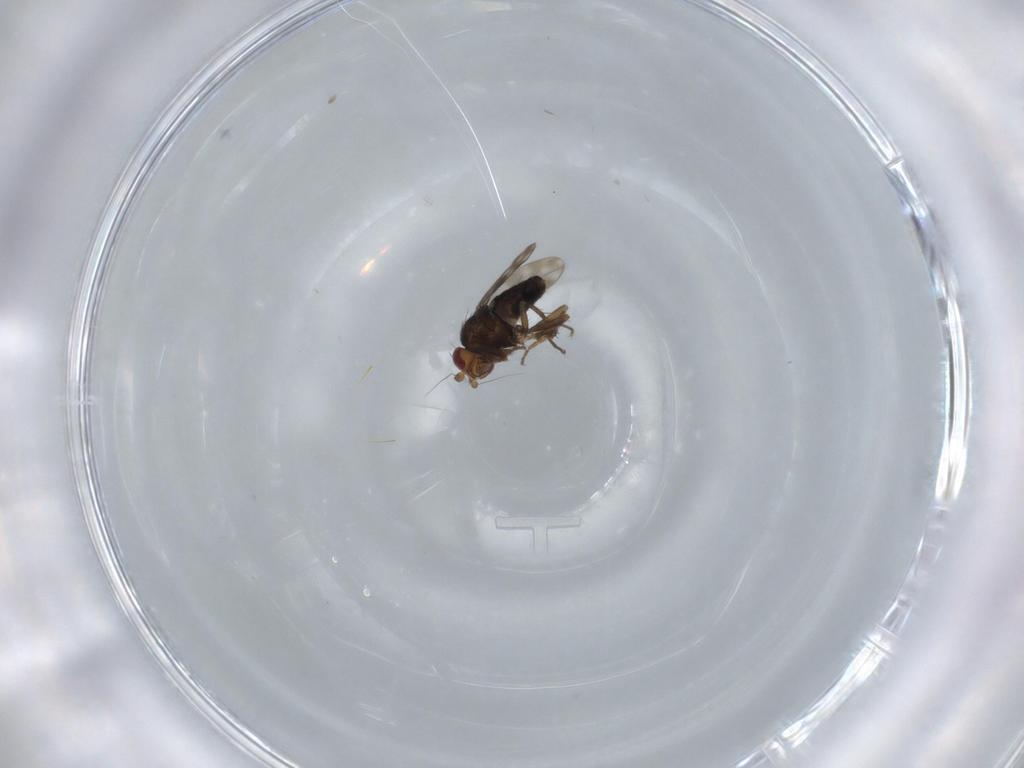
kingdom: Animalia
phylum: Arthropoda
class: Insecta
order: Diptera
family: Sphaeroceridae
